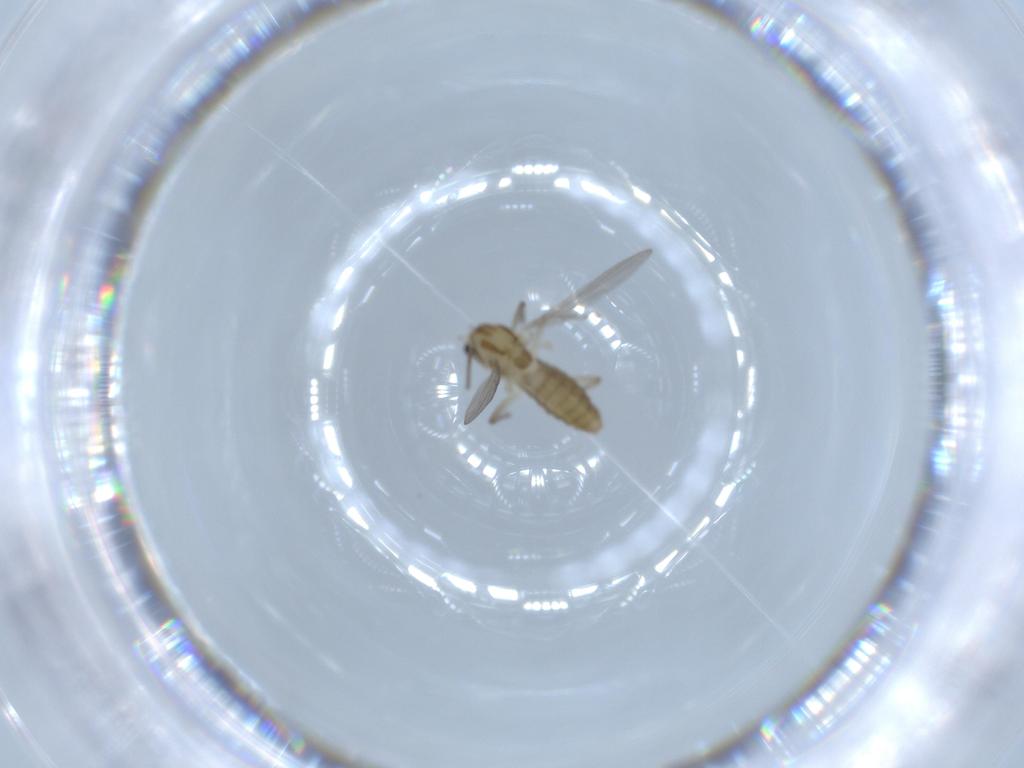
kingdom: Animalia
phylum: Arthropoda
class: Insecta
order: Diptera
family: Chironomidae
